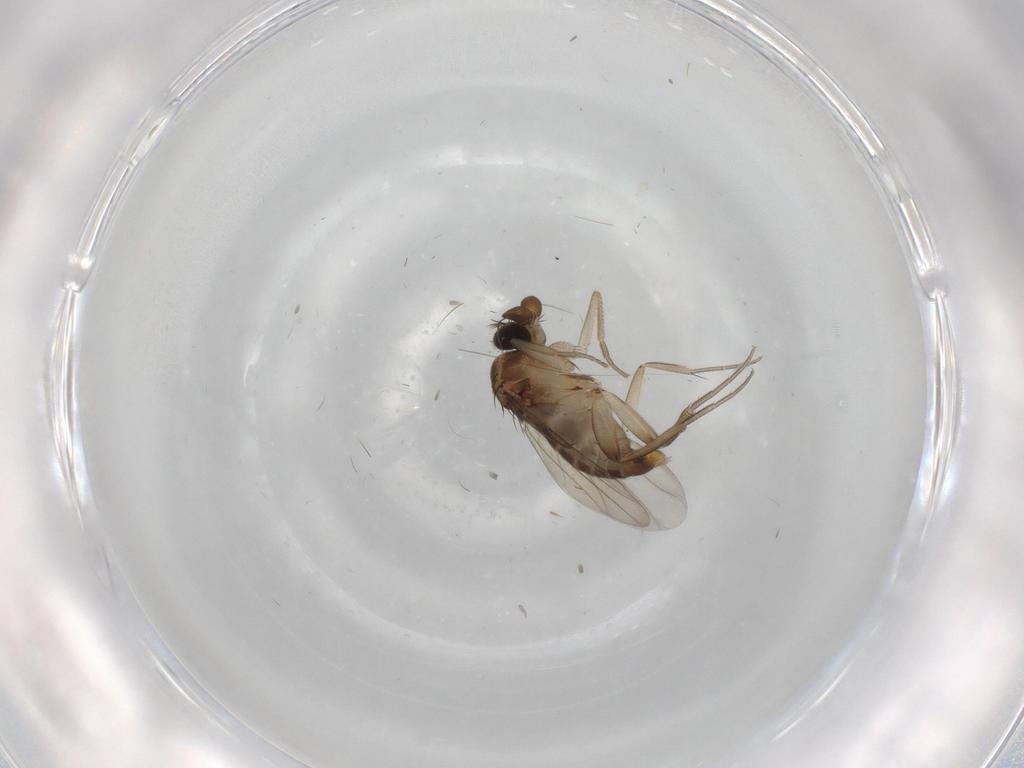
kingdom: Animalia
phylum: Arthropoda
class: Insecta
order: Diptera
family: Phoridae
